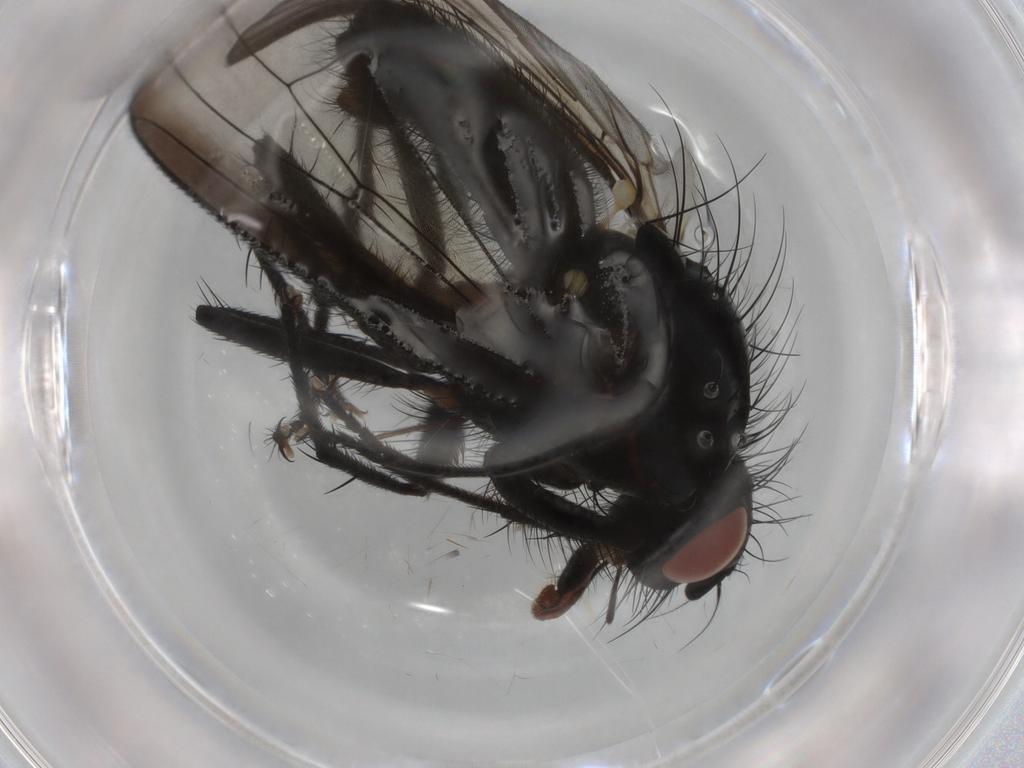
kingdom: Animalia
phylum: Arthropoda
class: Insecta
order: Diptera
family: Anthomyiidae
